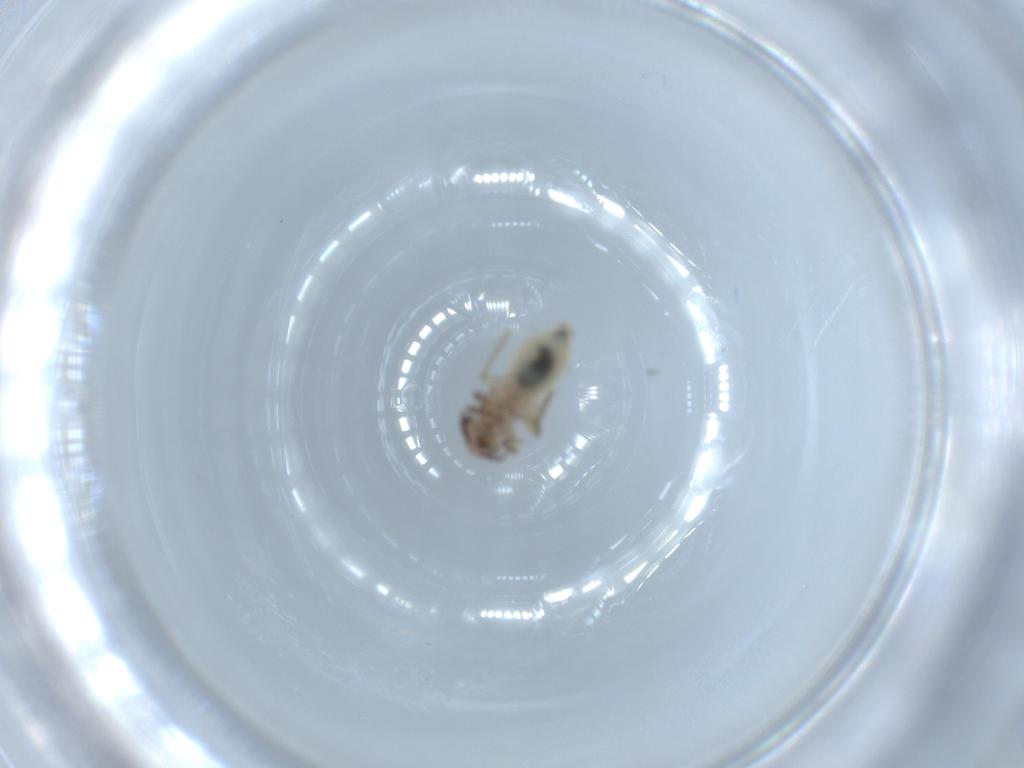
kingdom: Animalia
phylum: Arthropoda
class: Insecta
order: Psocodea
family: Lepidopsocidae
